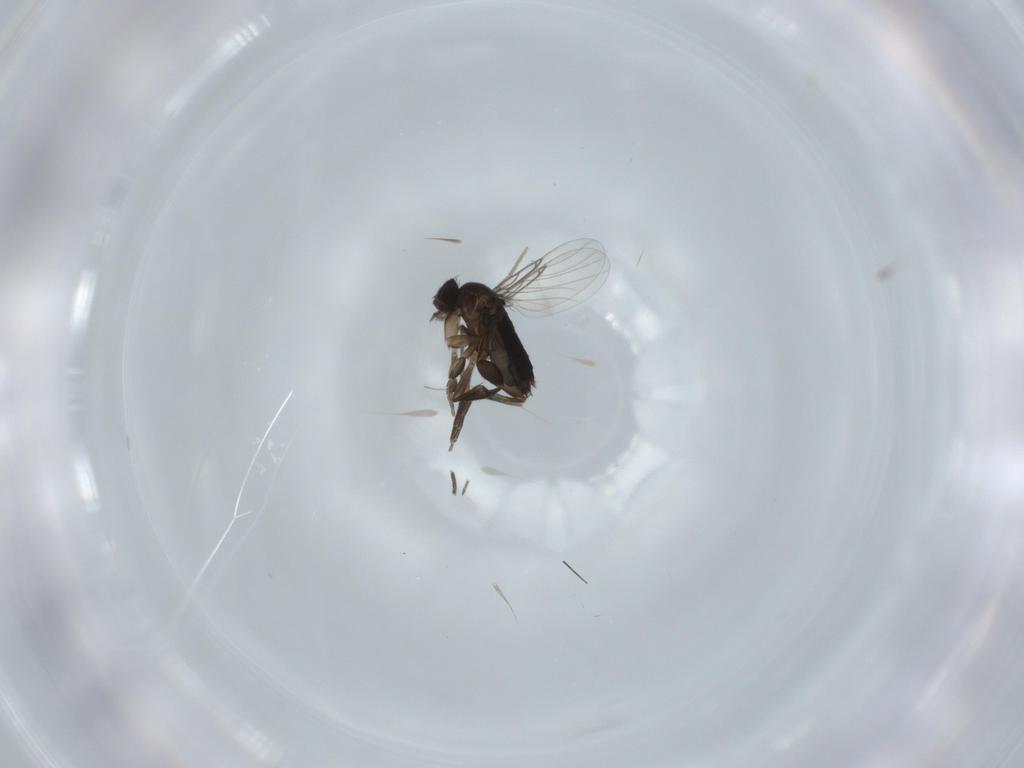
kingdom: Animalia
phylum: Arthropoda
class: Insecta
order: Diptera
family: Phoridae
